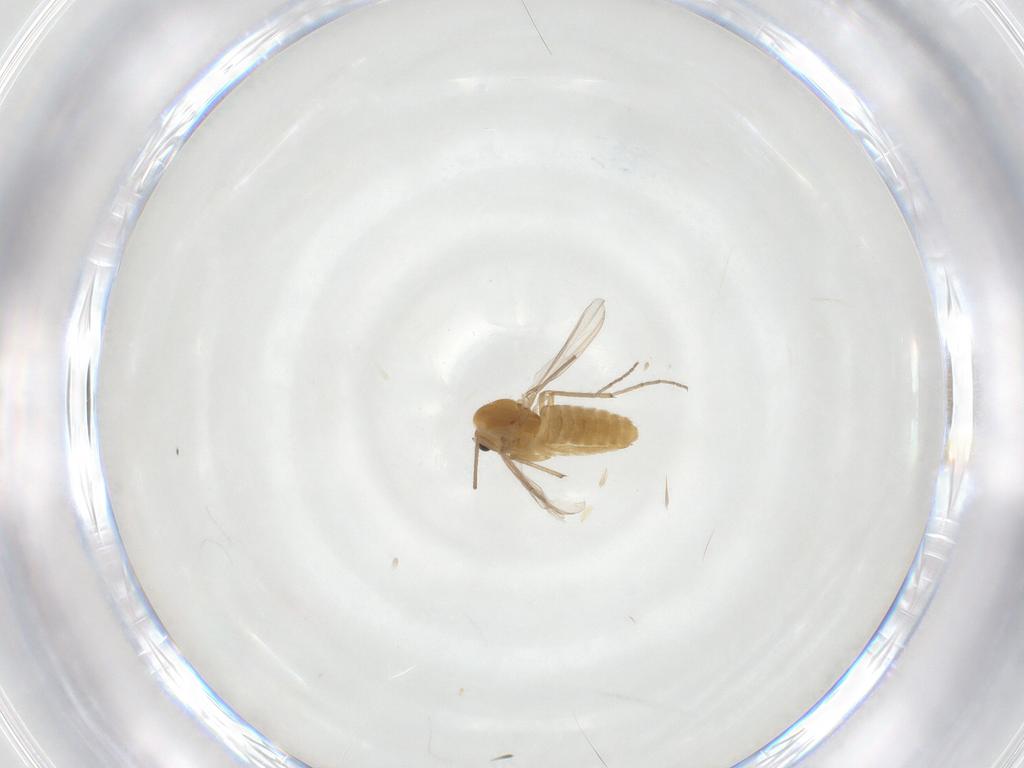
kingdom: Animalia
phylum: Arthropoda
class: Insecta
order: Diptera
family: Chironomidae
